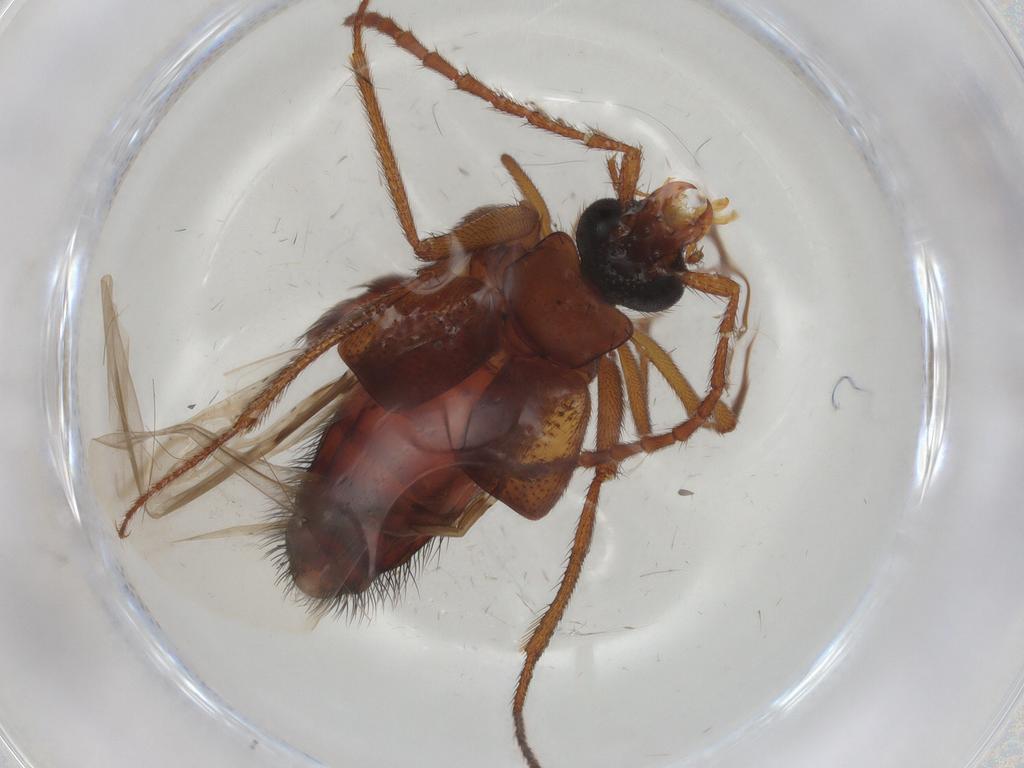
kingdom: Animalia
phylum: Arthropoda
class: Insecta
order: Coleoptera
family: Staphylinidae
